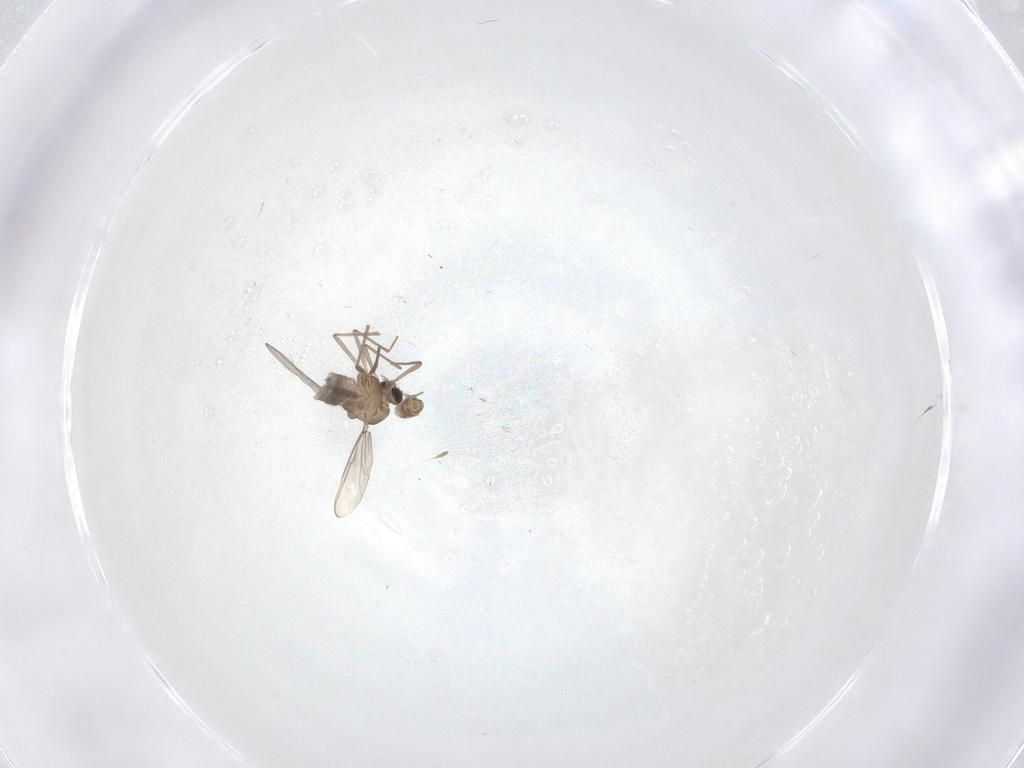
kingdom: Animalia
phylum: Arthropoda
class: Insecta
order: Diptera
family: Chironomidae
